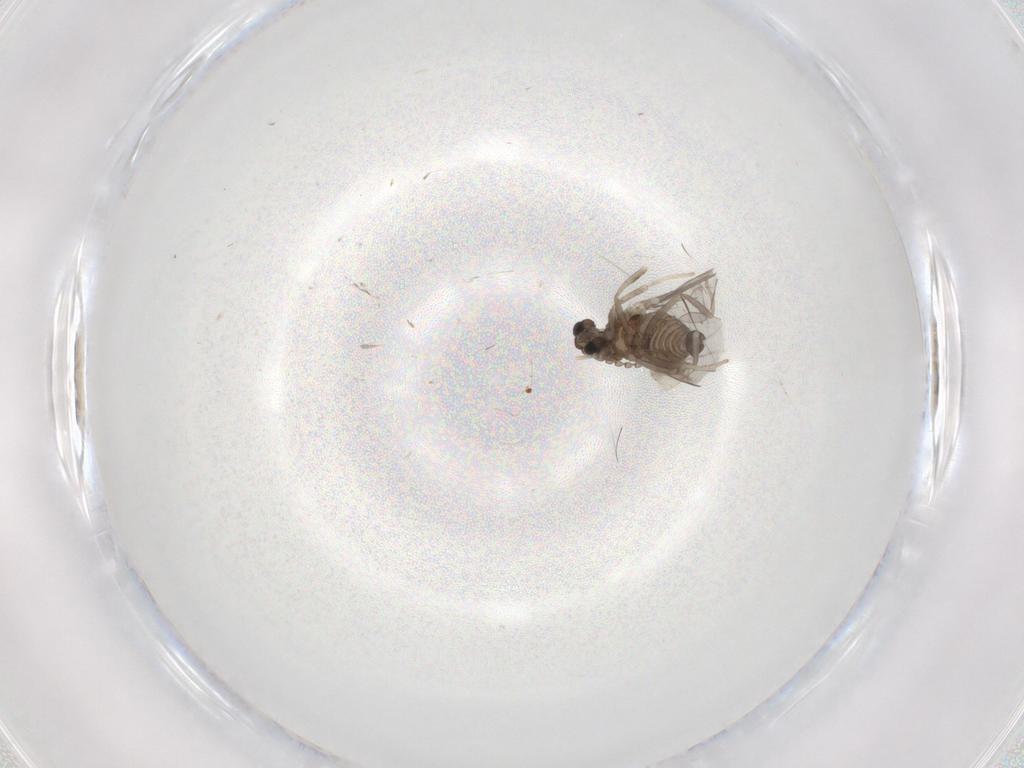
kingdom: Animalia
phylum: Arthropoda
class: Insecta
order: Diptera
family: Cecidomyiidae
